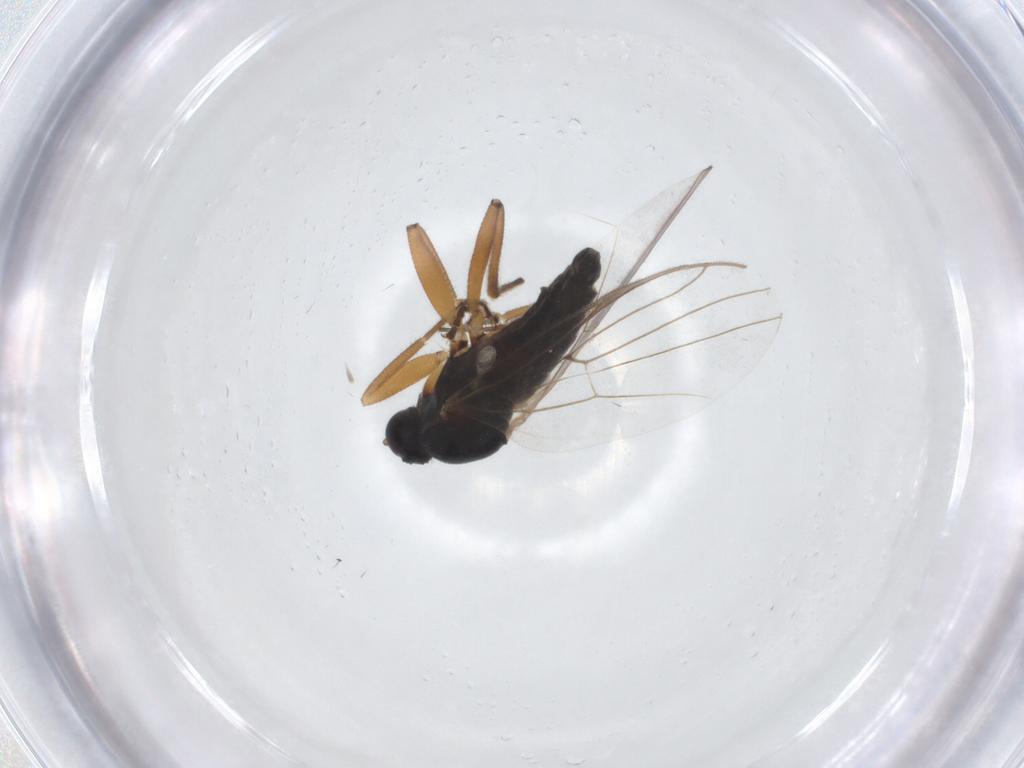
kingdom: Animalia
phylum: Arthropoda
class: Insecta
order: Diptera
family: Hybotidae
